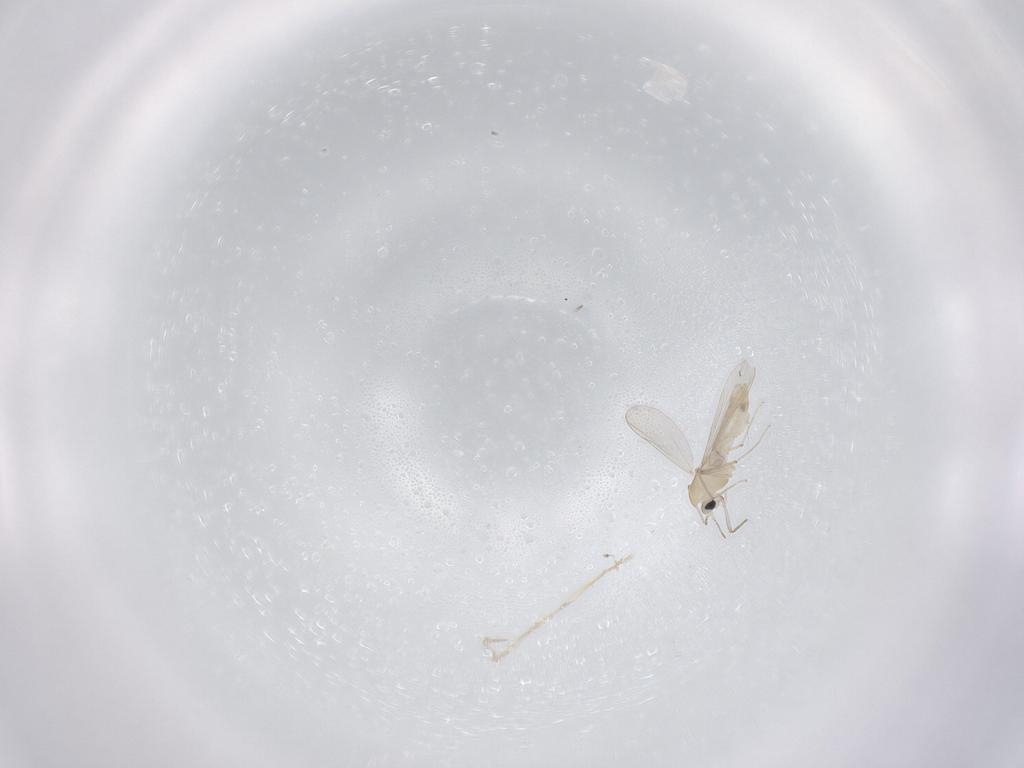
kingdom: Animalia
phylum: Arthropoda
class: Insecta
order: Diptera
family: Chironomidae
